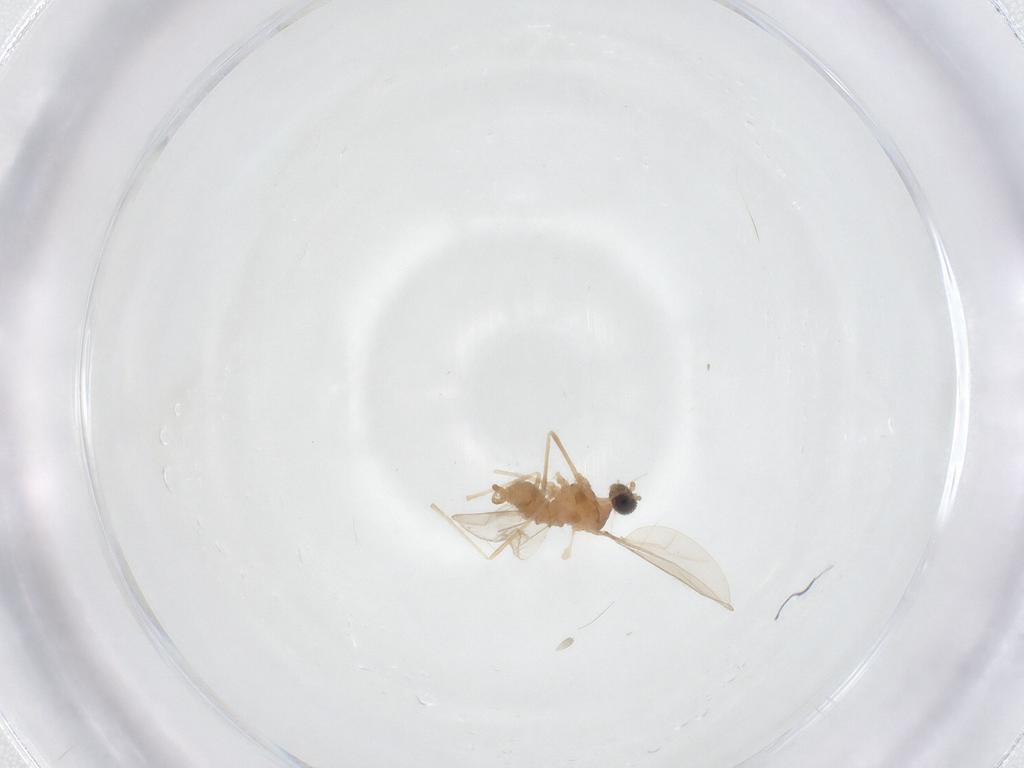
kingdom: Animalia
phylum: Arthropoda
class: Insecta
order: Diptera
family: Cecidomyiidae
